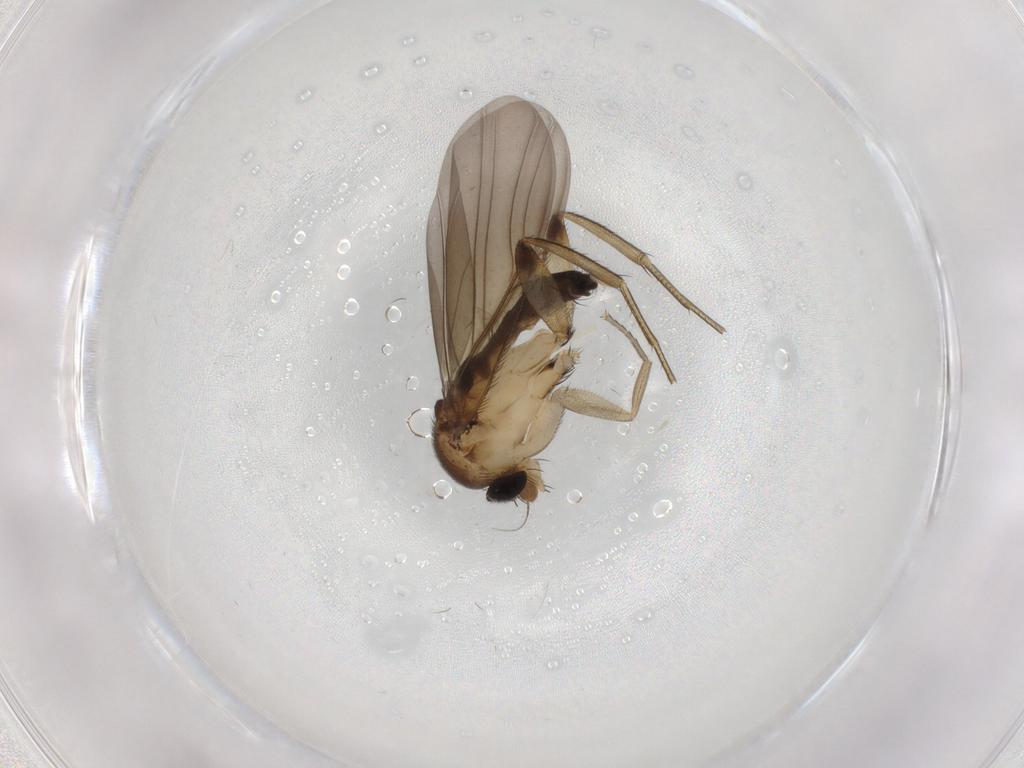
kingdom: Animalia
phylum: Arthropoda
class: Insecta
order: Diptera
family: Phoridae
